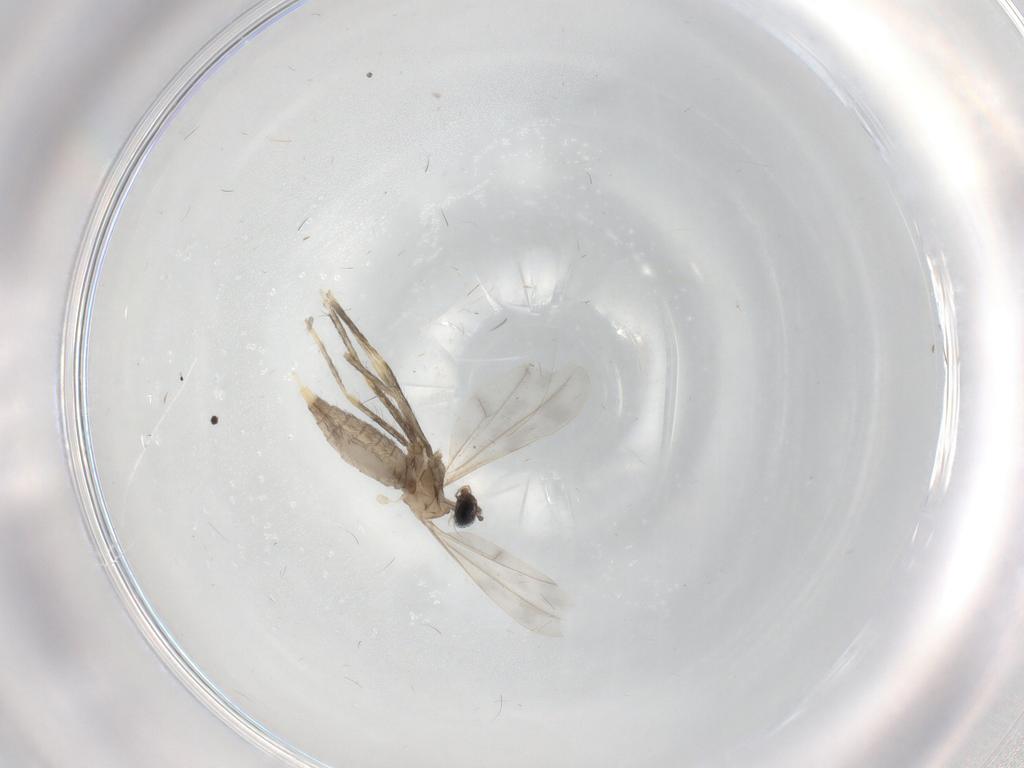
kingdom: Animalia
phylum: Arthropoda
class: Insecta
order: Diptera
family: Cecidomyiidae
